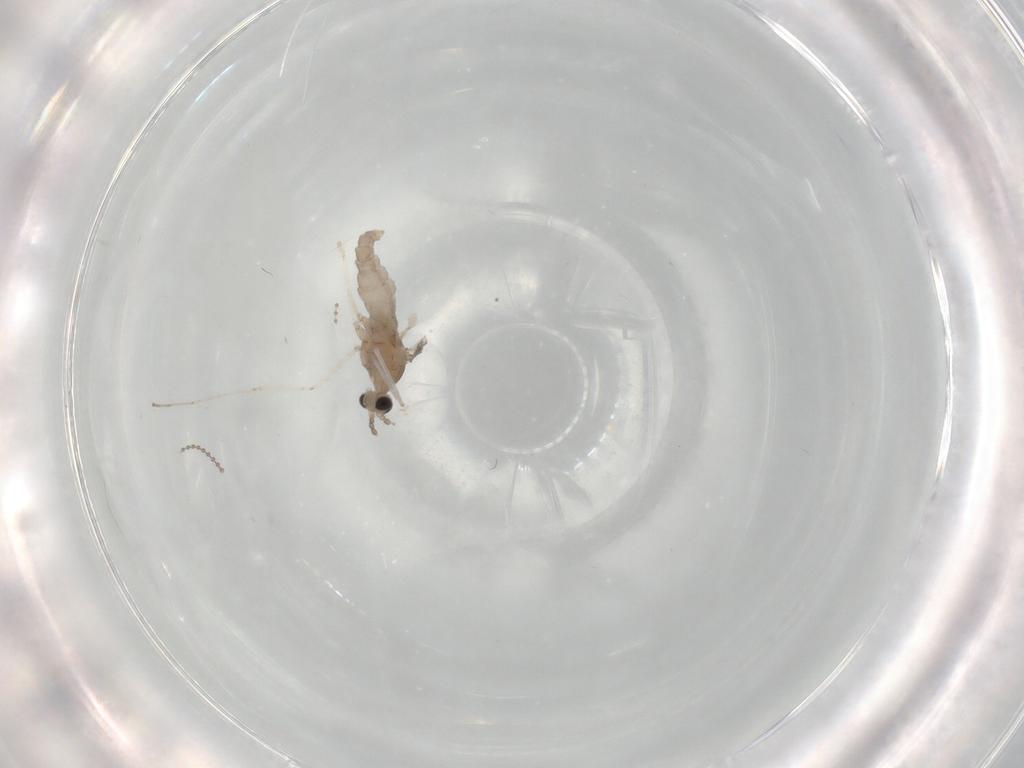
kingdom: Animalia
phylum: Arthropoda
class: Insecta
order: Diptera
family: Cecidomyiidae
